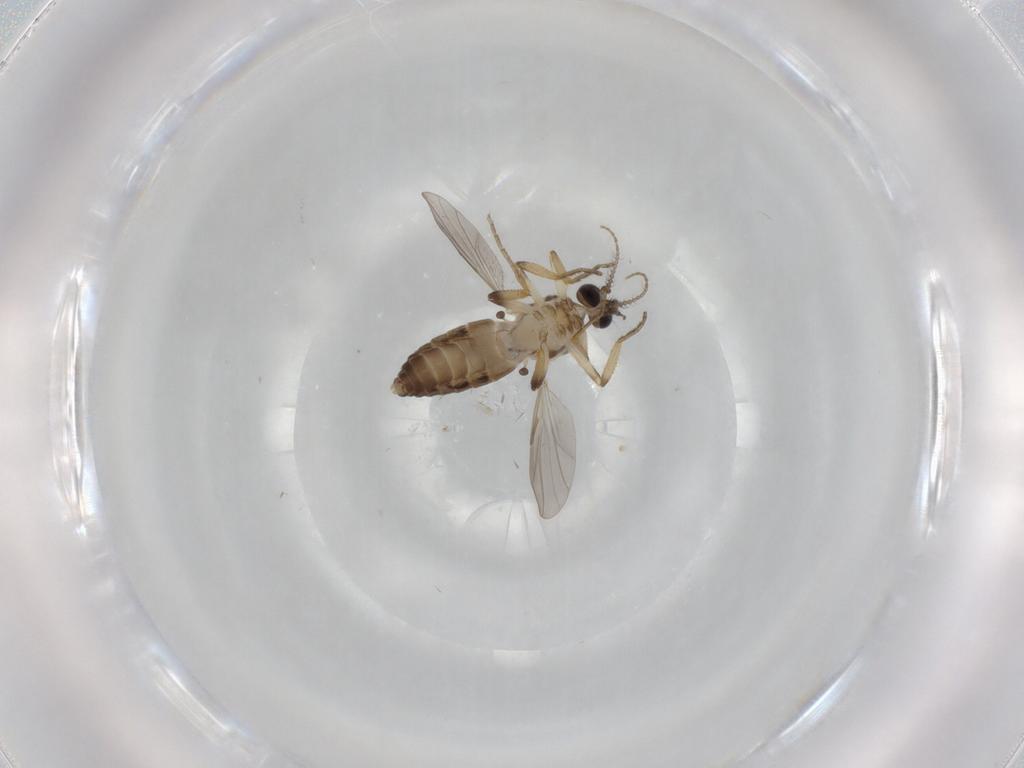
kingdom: Animalia
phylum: Arthropoda
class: Insecta
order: Diptera
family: Ceratopogonidae
